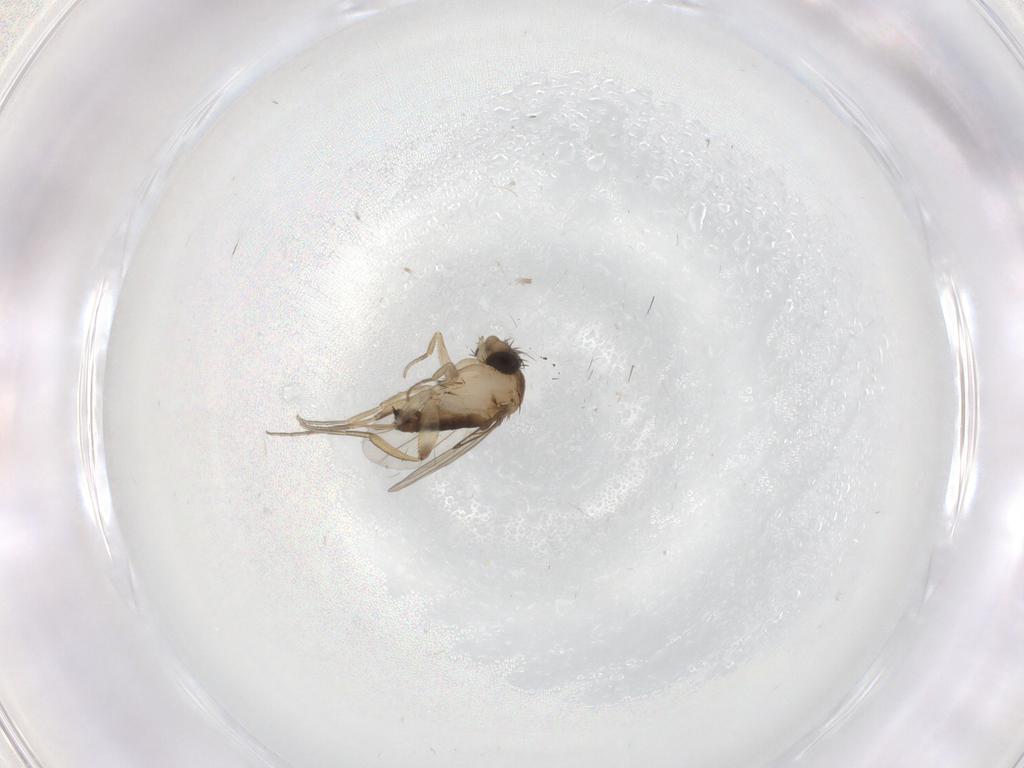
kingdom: Animalia
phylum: Arthropoda
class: Insecta
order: Diptera
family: Phoridae
